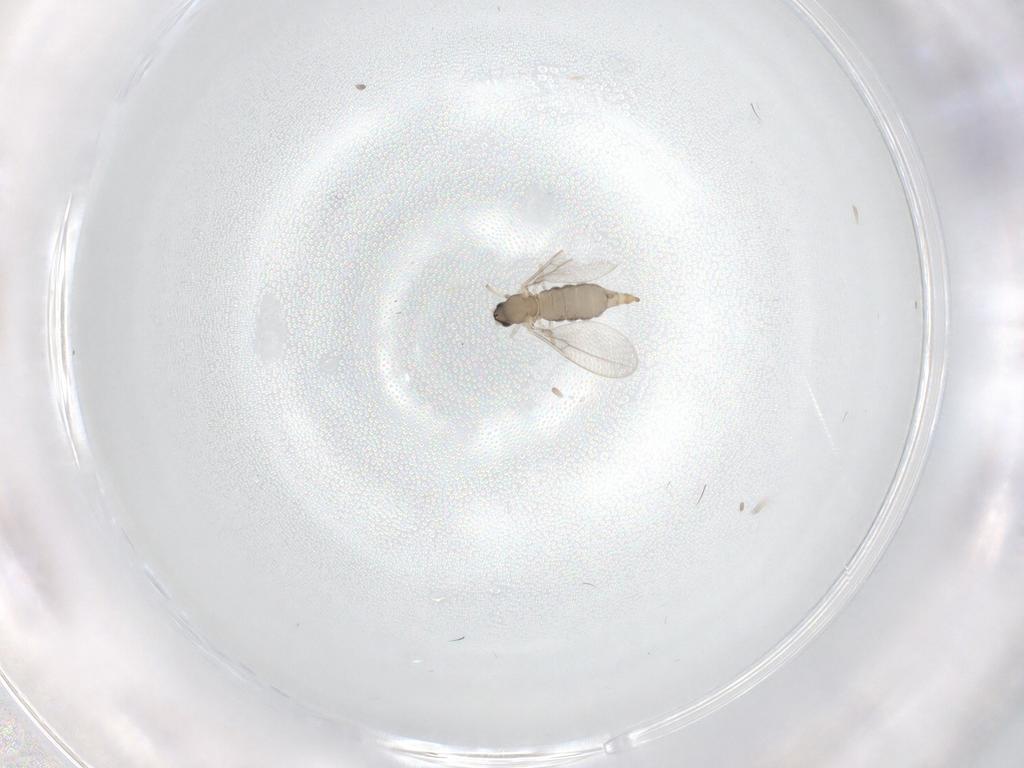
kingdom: Animalia
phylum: Arthropoda
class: Insecta
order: Diptera
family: Cecidomyiidae
